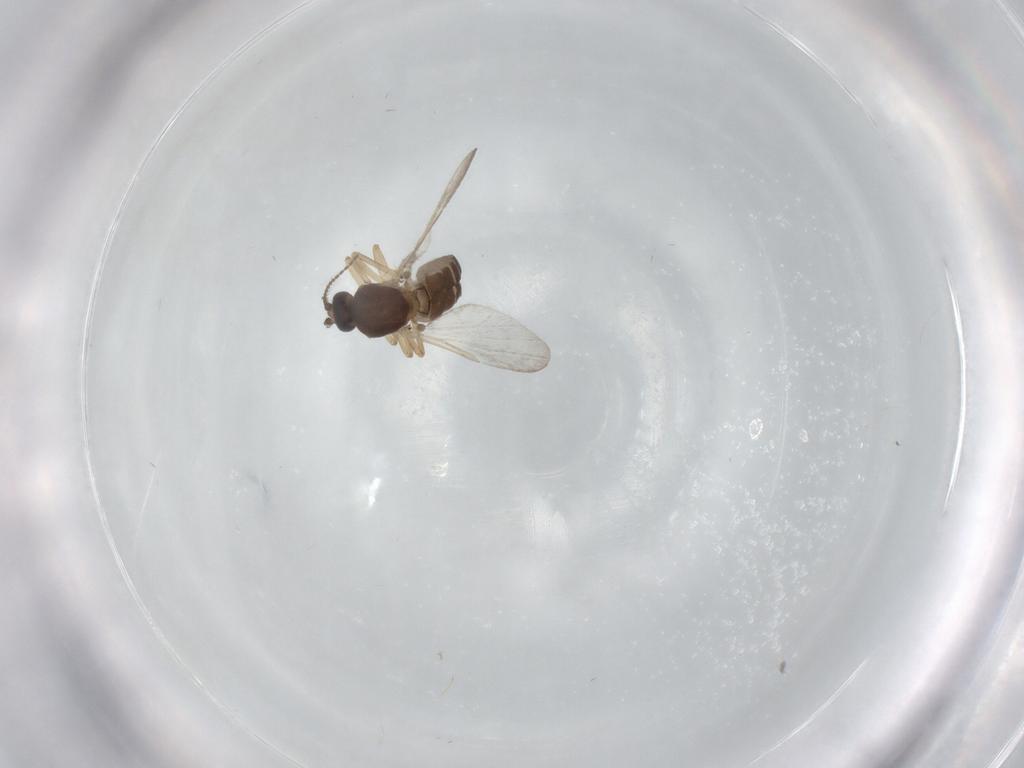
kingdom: Animalia
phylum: Arthropoda
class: Insecta
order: Diptera
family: Ceratopogonidae
